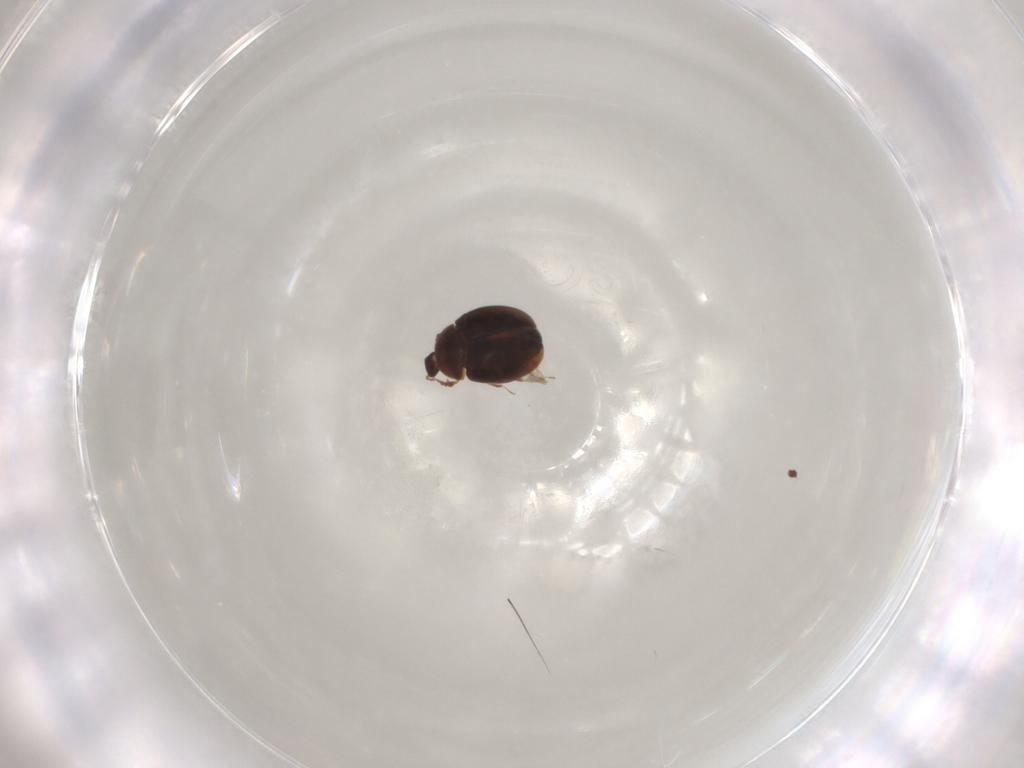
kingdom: Animalia
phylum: Arthropoda
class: Insecta
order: Coleoptera
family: Corylophidae
